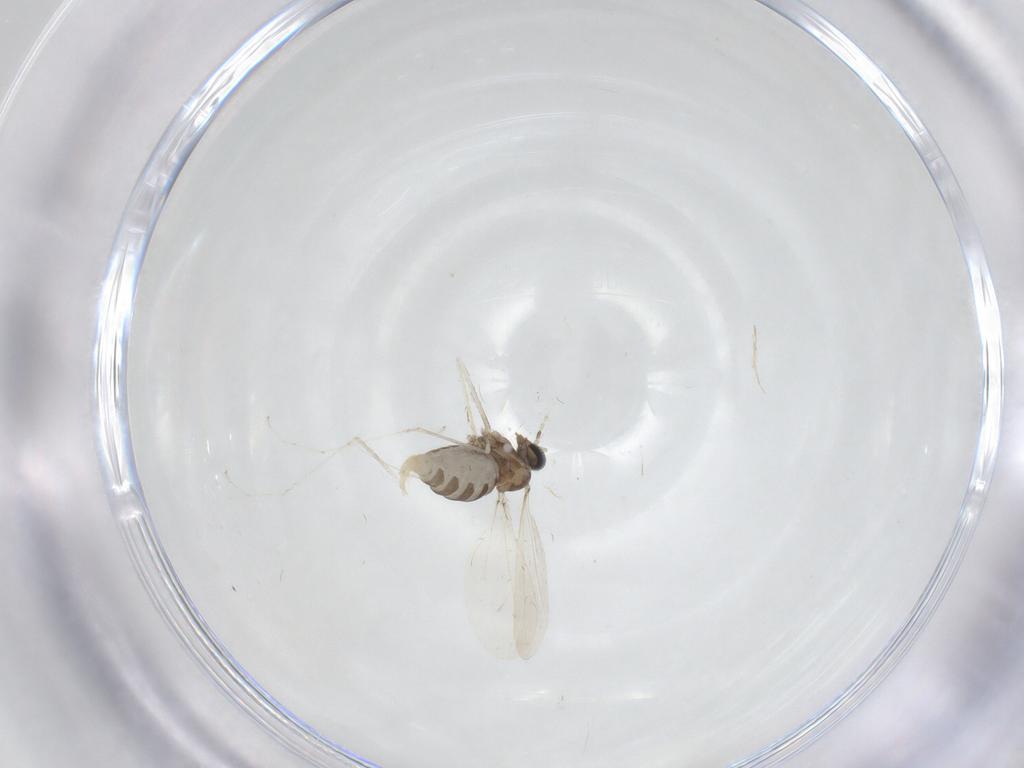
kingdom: Animalia
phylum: Arthropoda
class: Insecta
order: Diptera
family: Cecidomyiidae
